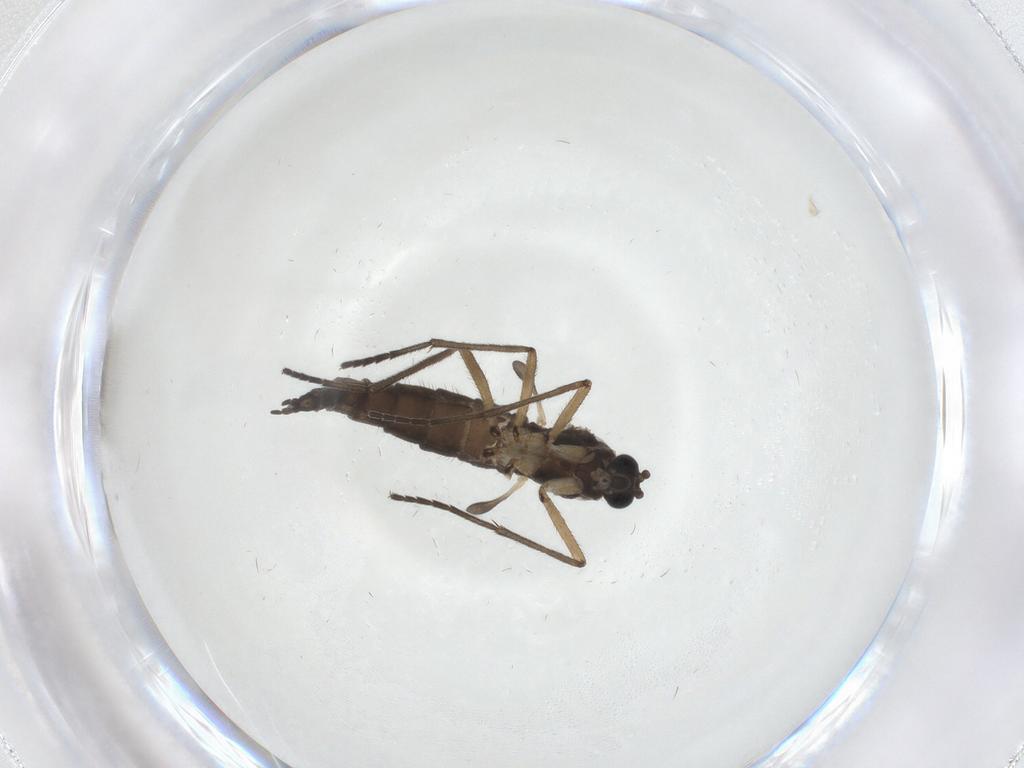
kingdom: Animalia
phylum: Arthropoda
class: Insecta
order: Diptera
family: Sciaridae
